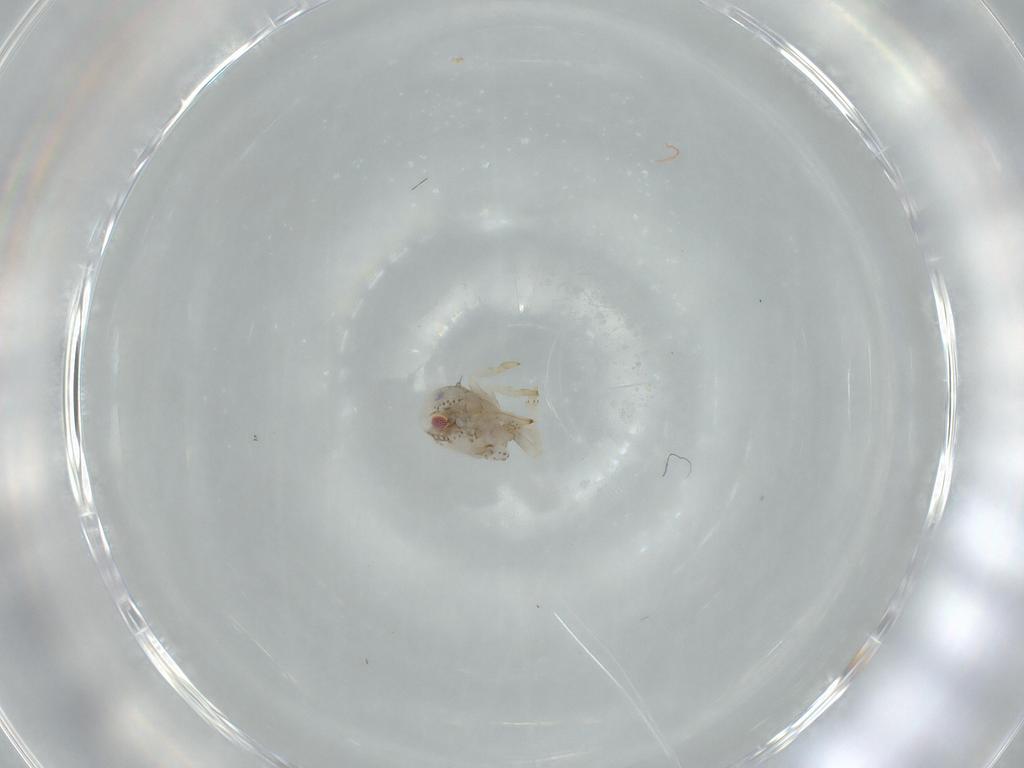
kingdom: Animalia
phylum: Arthropoda
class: Insecta
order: Hemiptera
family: Acanaloniidae
